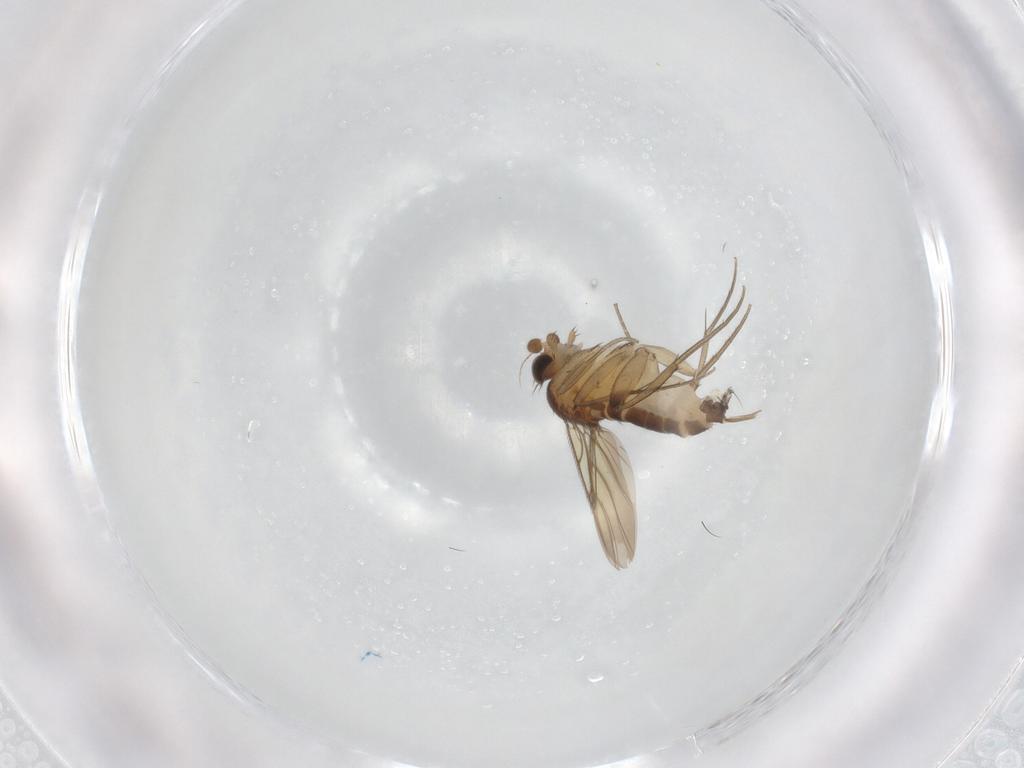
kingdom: Animalia
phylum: Arthropoda
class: Insecta
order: Diptera
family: Phoridae
